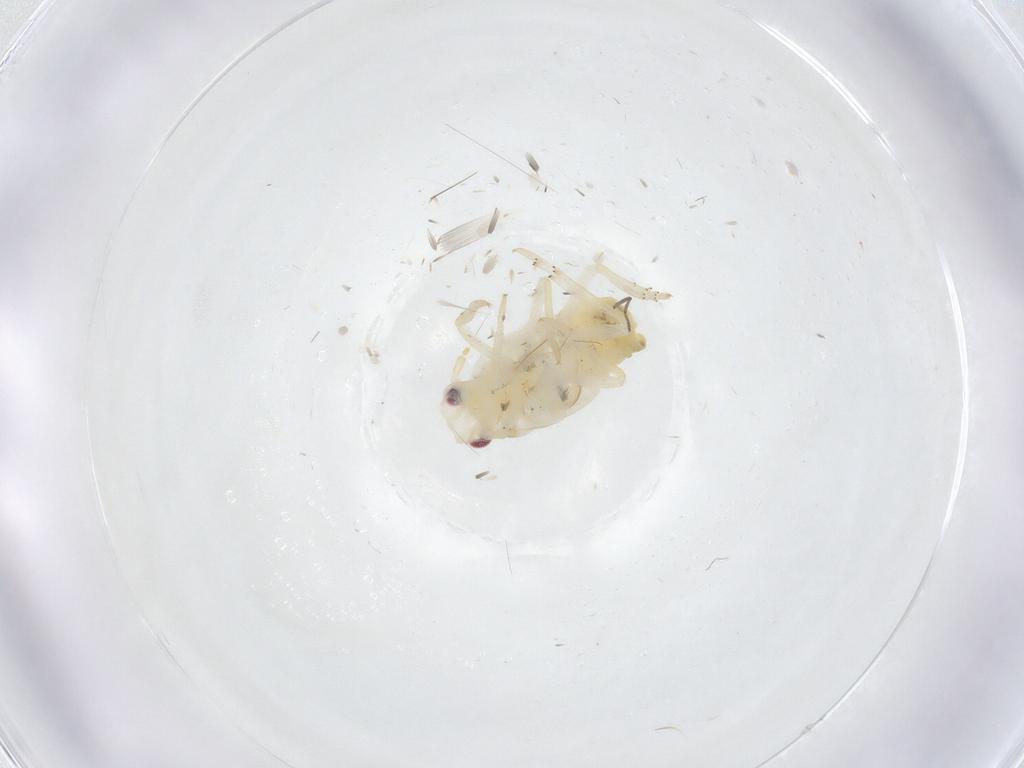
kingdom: Animalia
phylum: Arthropoda
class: Insecta
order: Hemiptera
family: Flatidae
